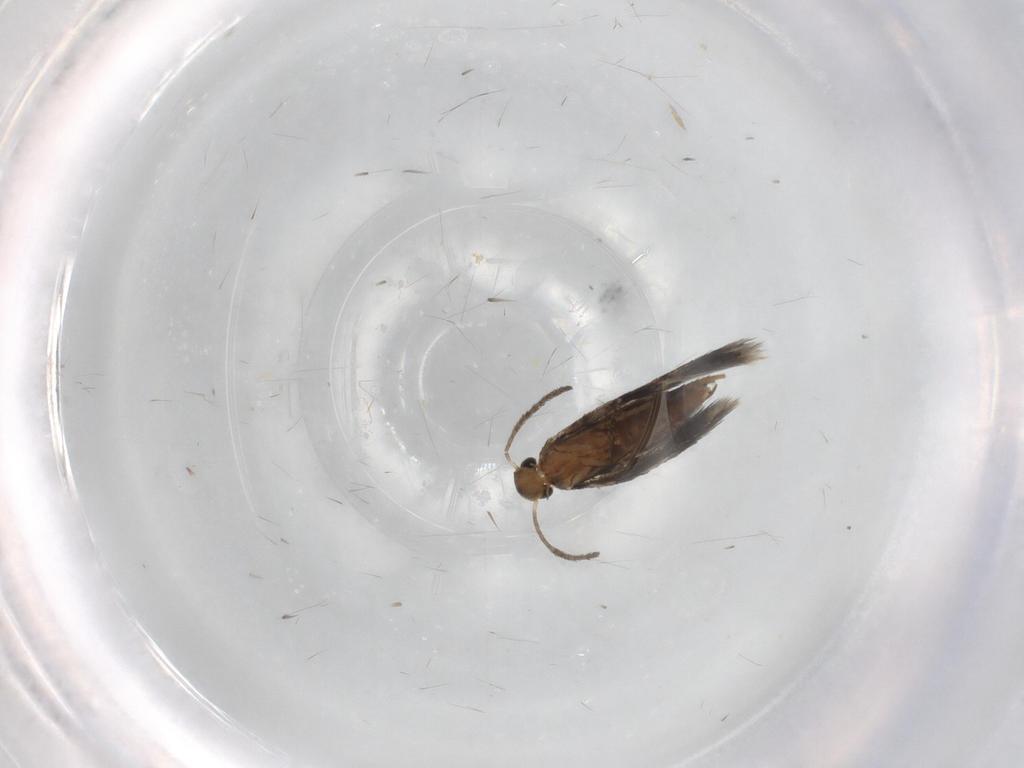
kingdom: Animalia
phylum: Arthropoda
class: Insecta
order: Lepidoptera
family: Heliozelidae
